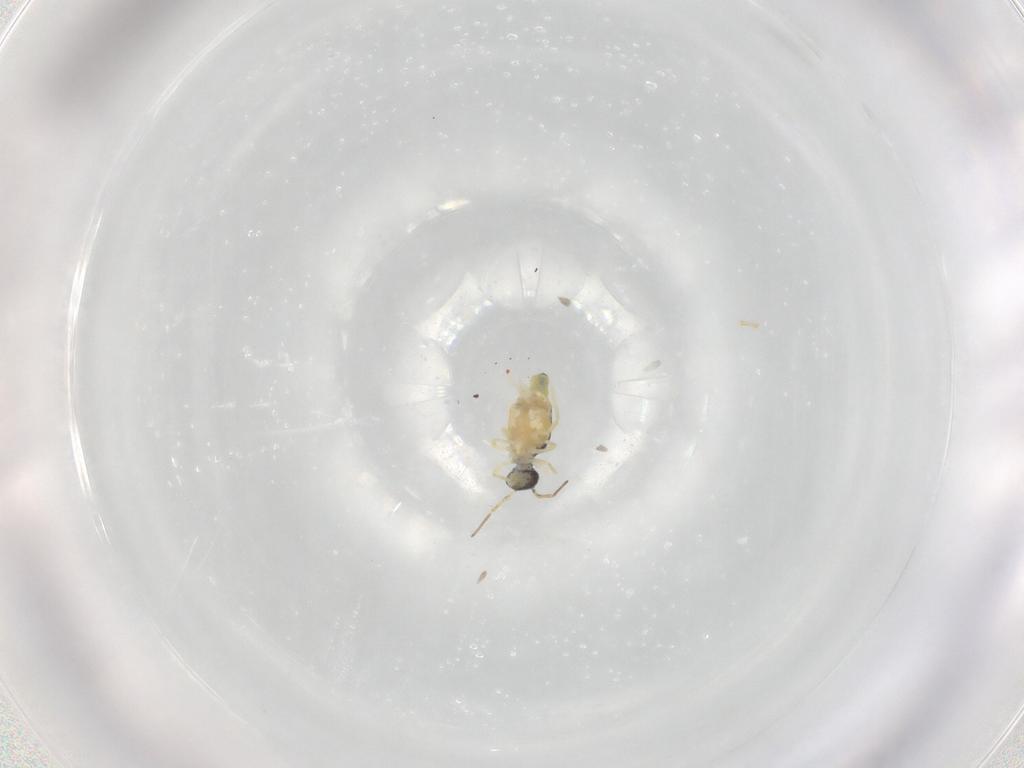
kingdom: Animalia
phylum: Arthropoda
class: Collembola
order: Symphypleona
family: Bourletiellidae
